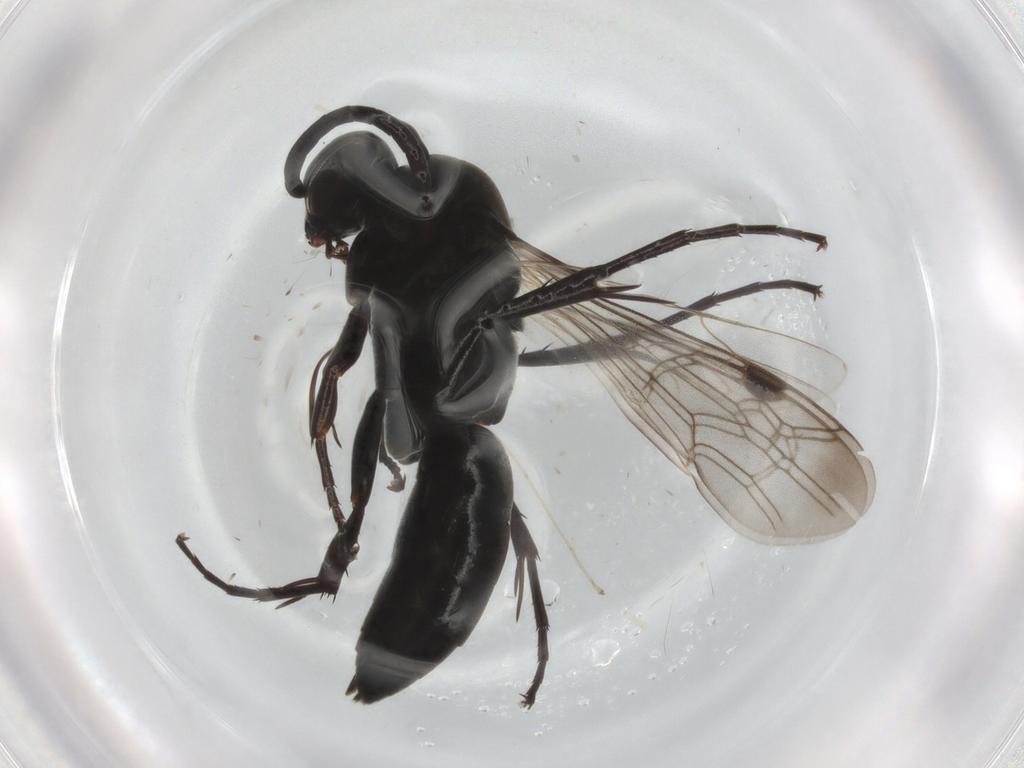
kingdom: Animalia
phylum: Arthropoda
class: Insecta
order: Hymenoptera
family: Pompilidae
